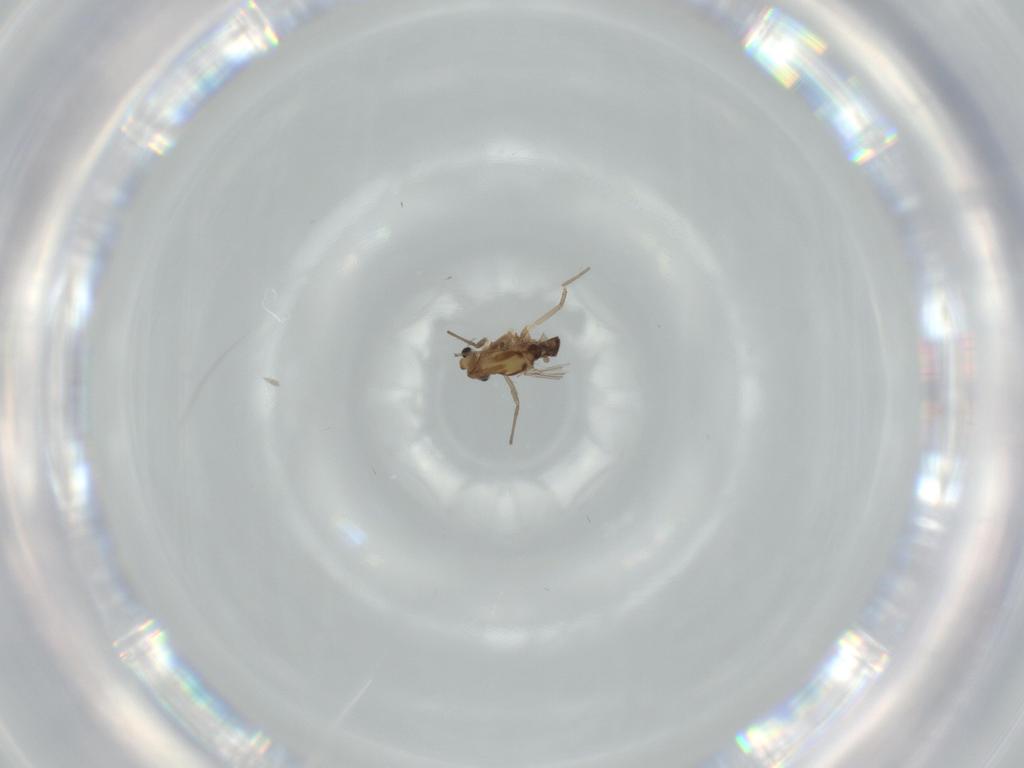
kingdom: Animalia
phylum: Arthropoda
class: Insecta
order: Diptera
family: Chironomidae
